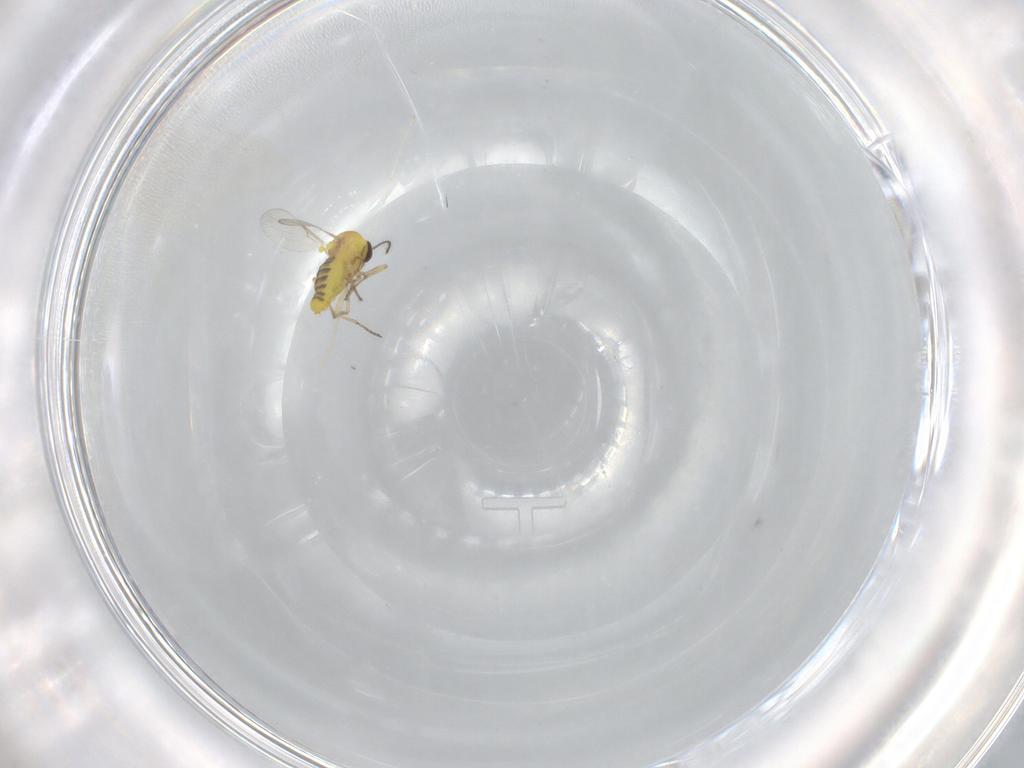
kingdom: Animalia
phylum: Arthropoda
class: Insecta
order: Diptera
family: Ceratopogonidae
